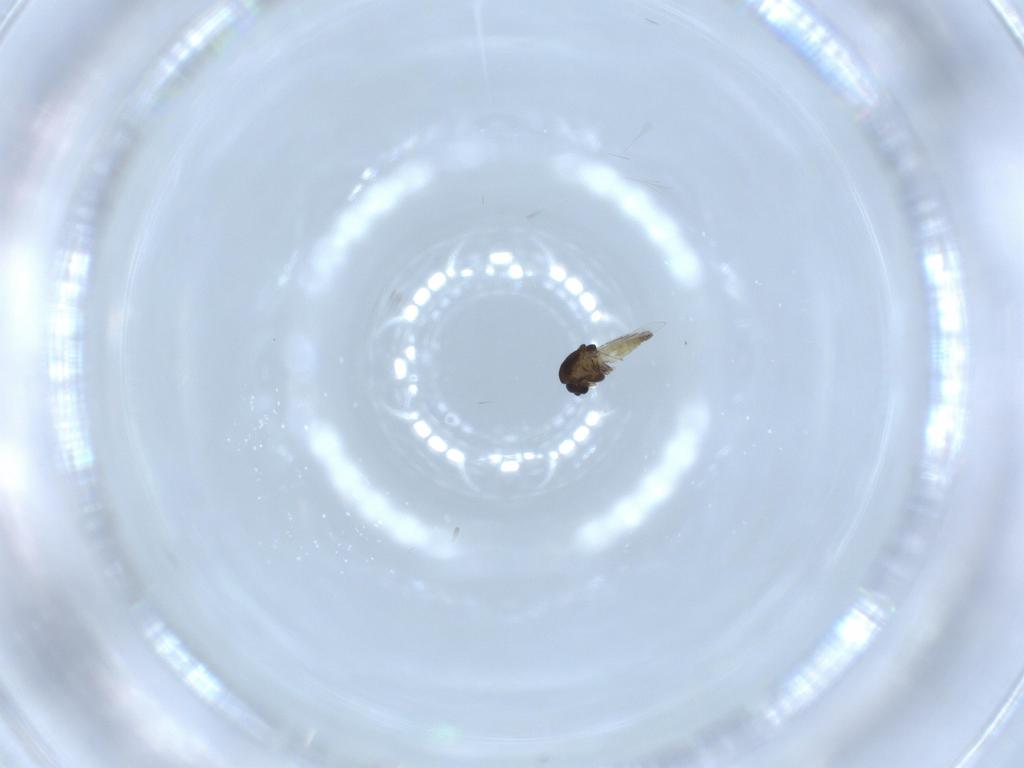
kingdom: Animalia
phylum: Arthropoda
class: Insecta
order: Diptera
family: Chironomidae
